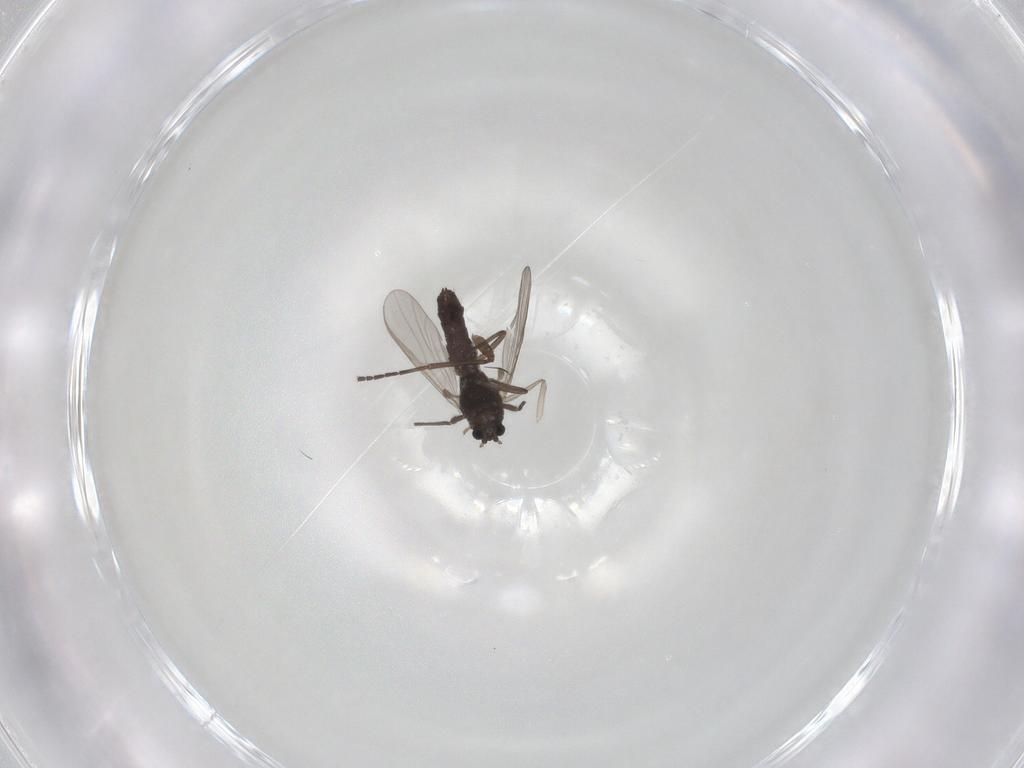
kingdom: Animalia
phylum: Arthropoda
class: Insecta
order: Diptera
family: Chironomidae
